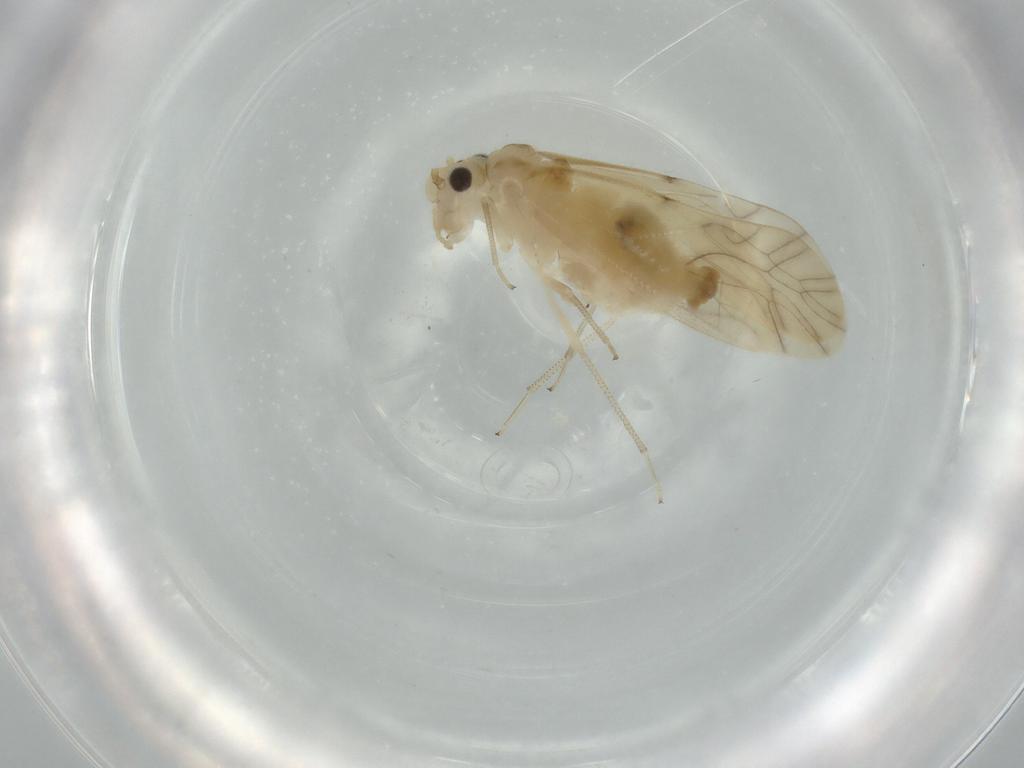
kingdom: Animalia
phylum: Arthropoda
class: Insecta
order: Psocodea
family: Caeciliusidae
